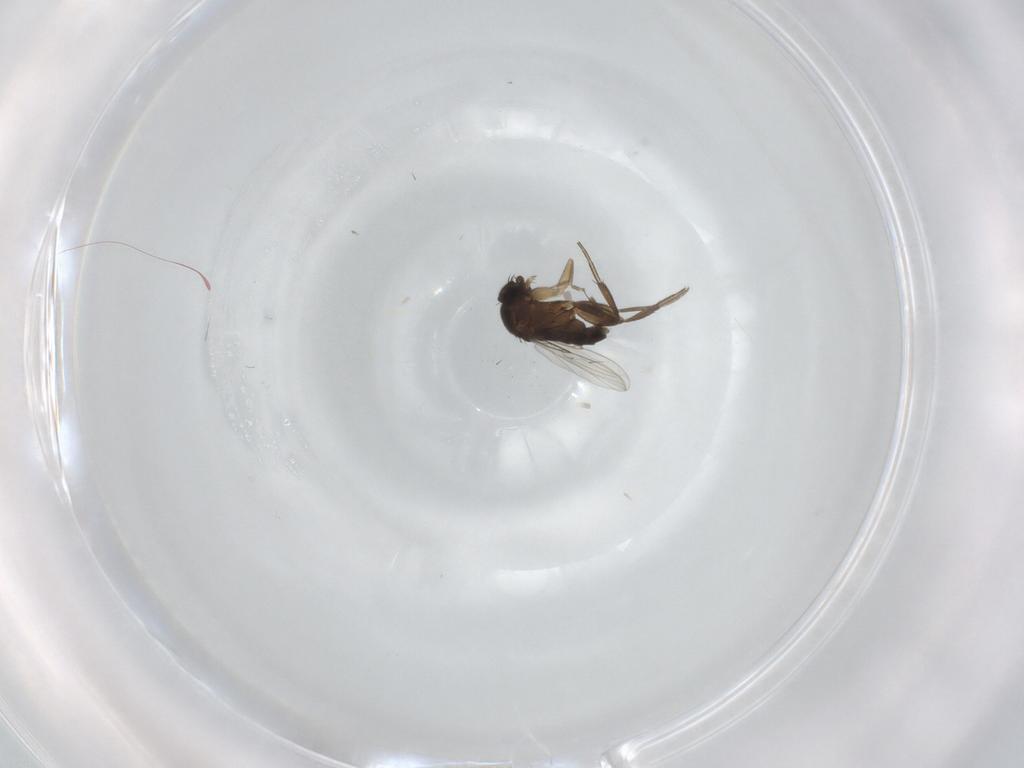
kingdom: Animalia
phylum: Arthropoda
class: Insecta
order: Diptera
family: Phoridae
